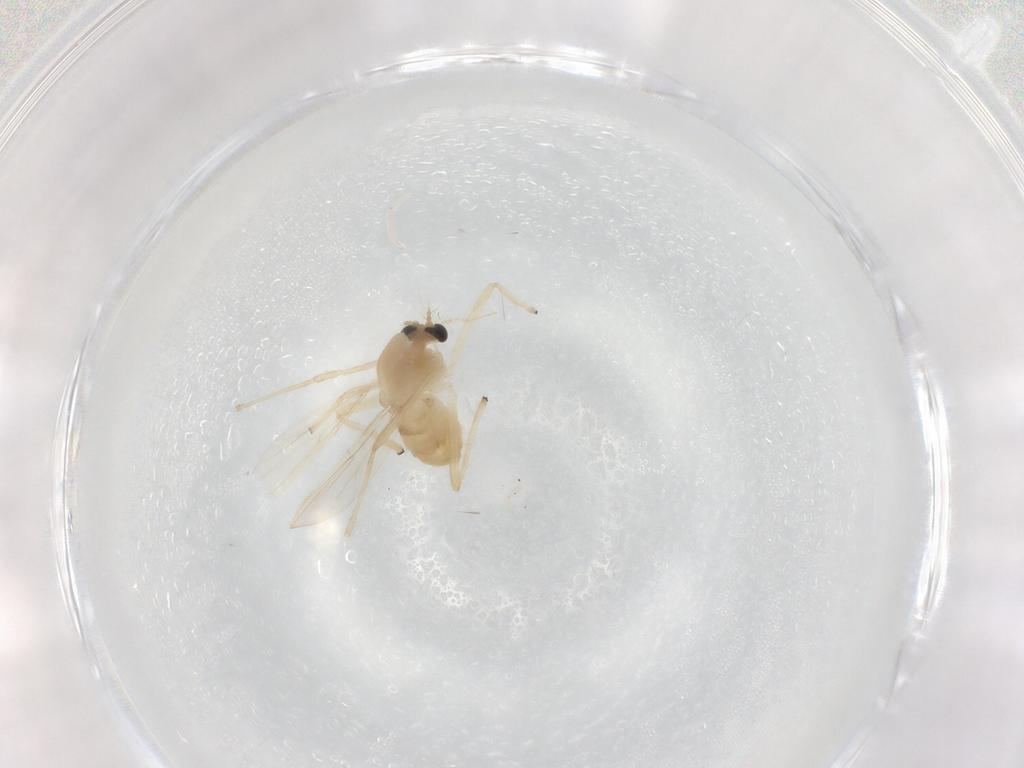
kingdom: Animalia
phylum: Arthropoda
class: Insecta
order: Diptera
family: Chironomidae
